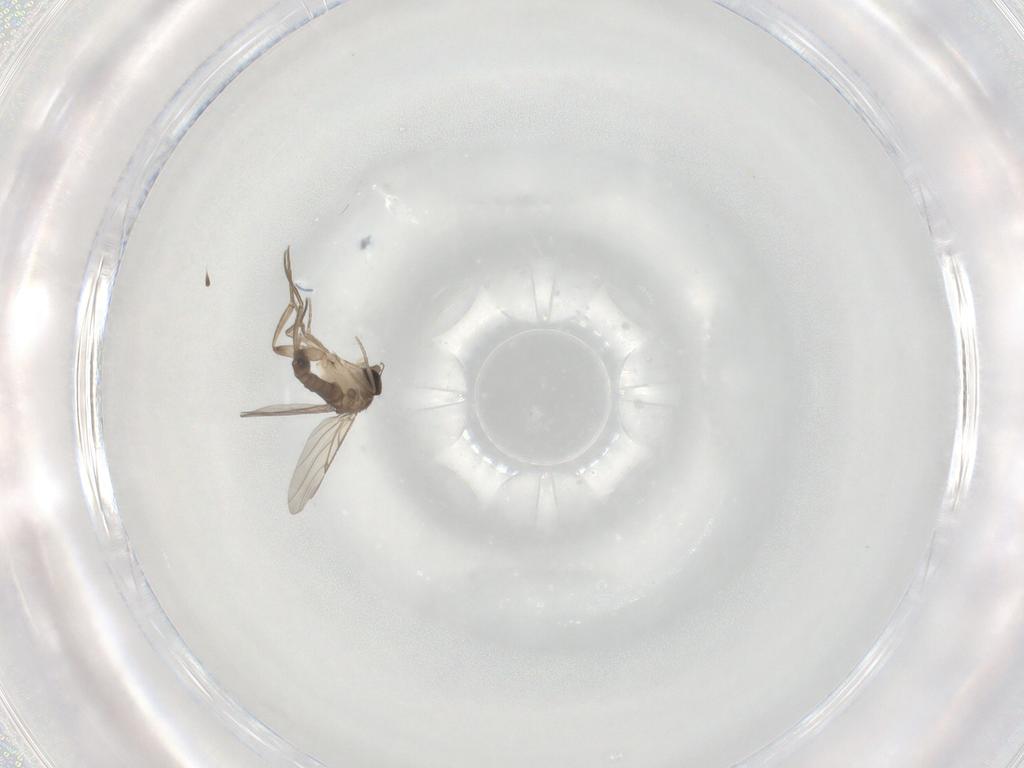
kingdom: Animalia
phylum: Arthropoda
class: Insecta
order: Diptera
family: Phoridae
